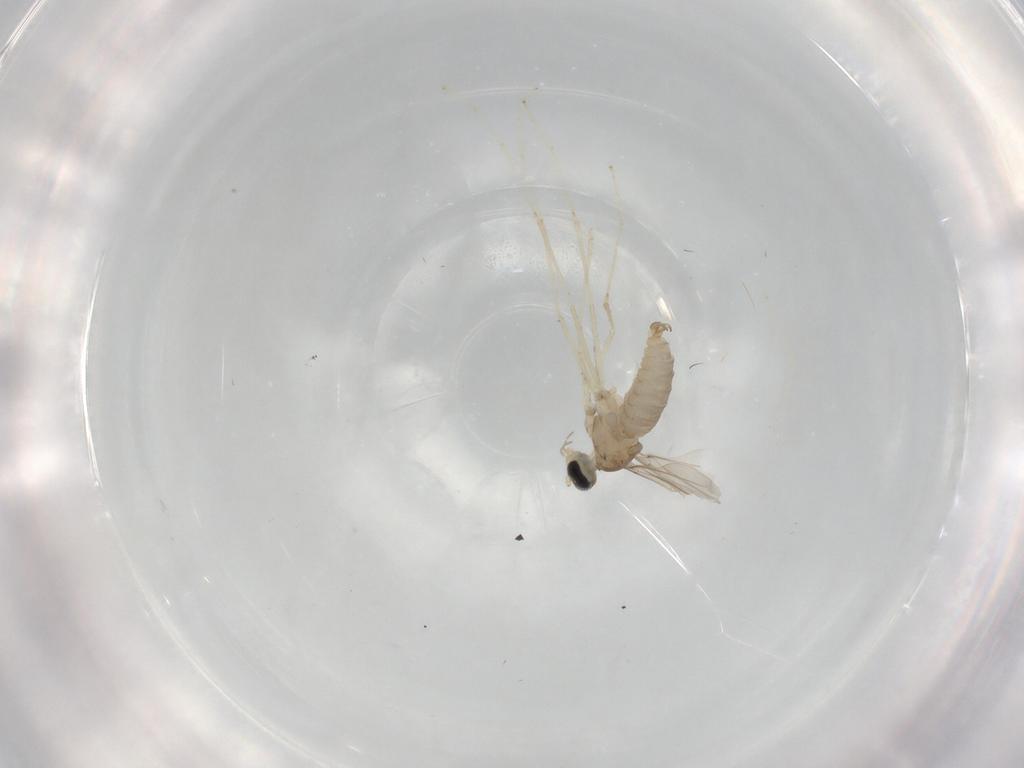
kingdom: Animalia
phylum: Arthropoda
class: Insecta
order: Diptera
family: Cecidomyiidae
